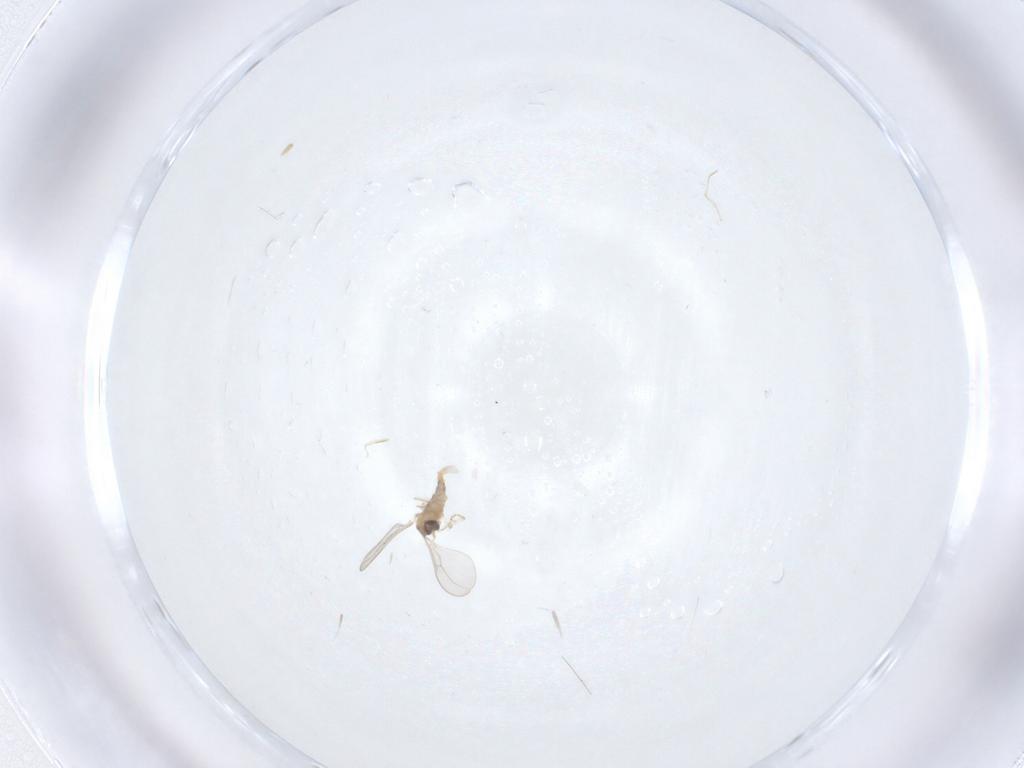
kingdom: Animalia
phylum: Arthropoda
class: Insecta
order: Diptera
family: Cecidomyiidae
